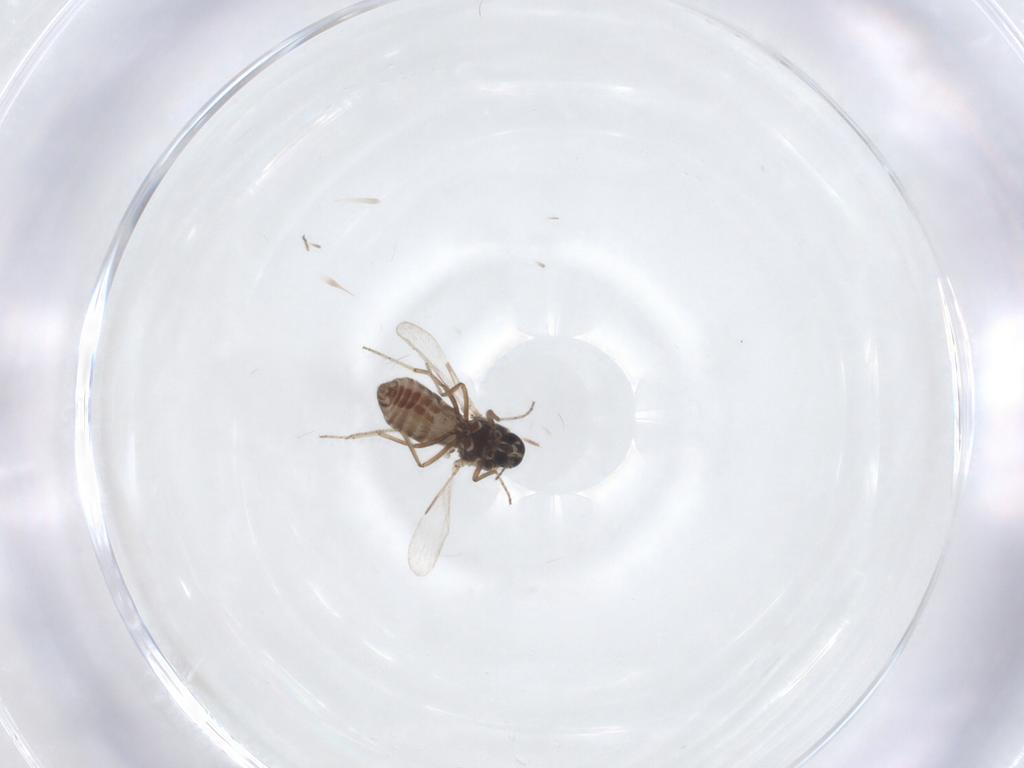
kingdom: Animalia
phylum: Arthropoda
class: Insecta
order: Diptera
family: Ceratopogonidae
